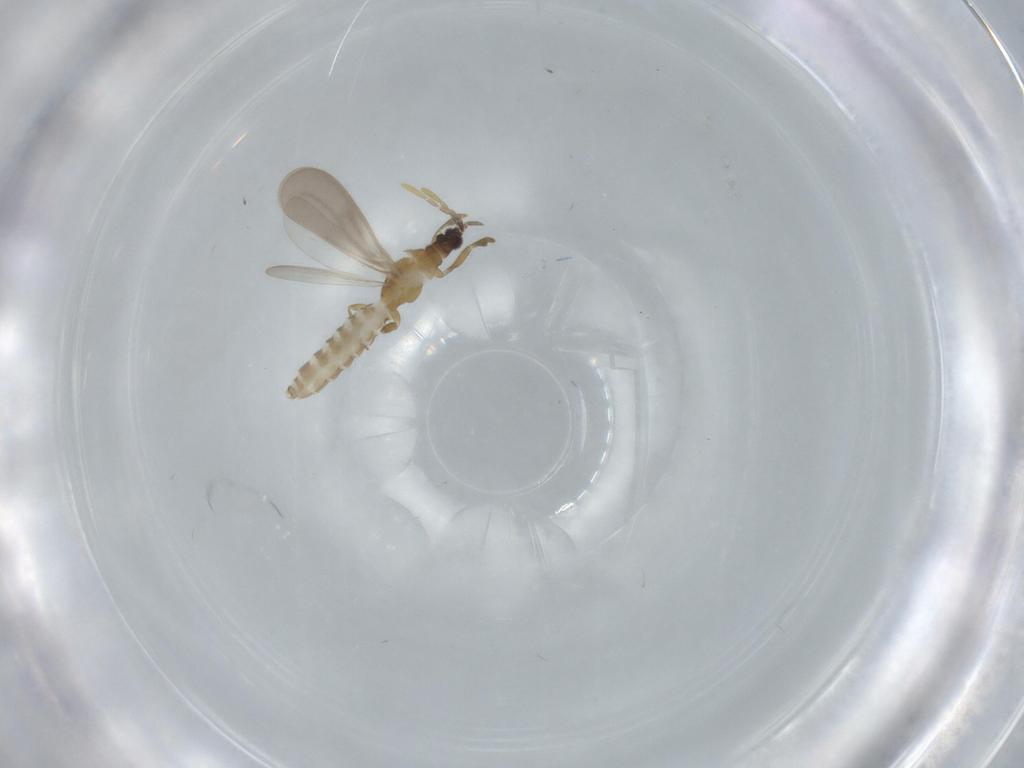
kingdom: Animalia
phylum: Arthropoda
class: Insecta
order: Hemiptera
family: Enicocephalidae
